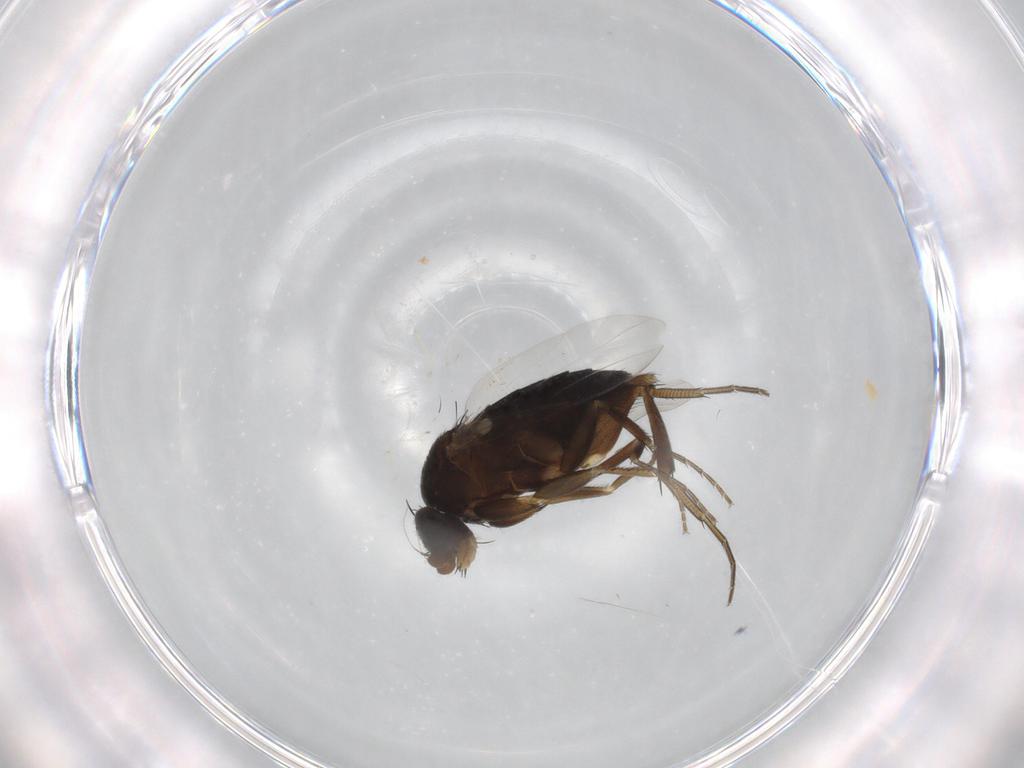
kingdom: Animalia
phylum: Arthropoda
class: Insecta
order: Diptera
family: Phoridae
